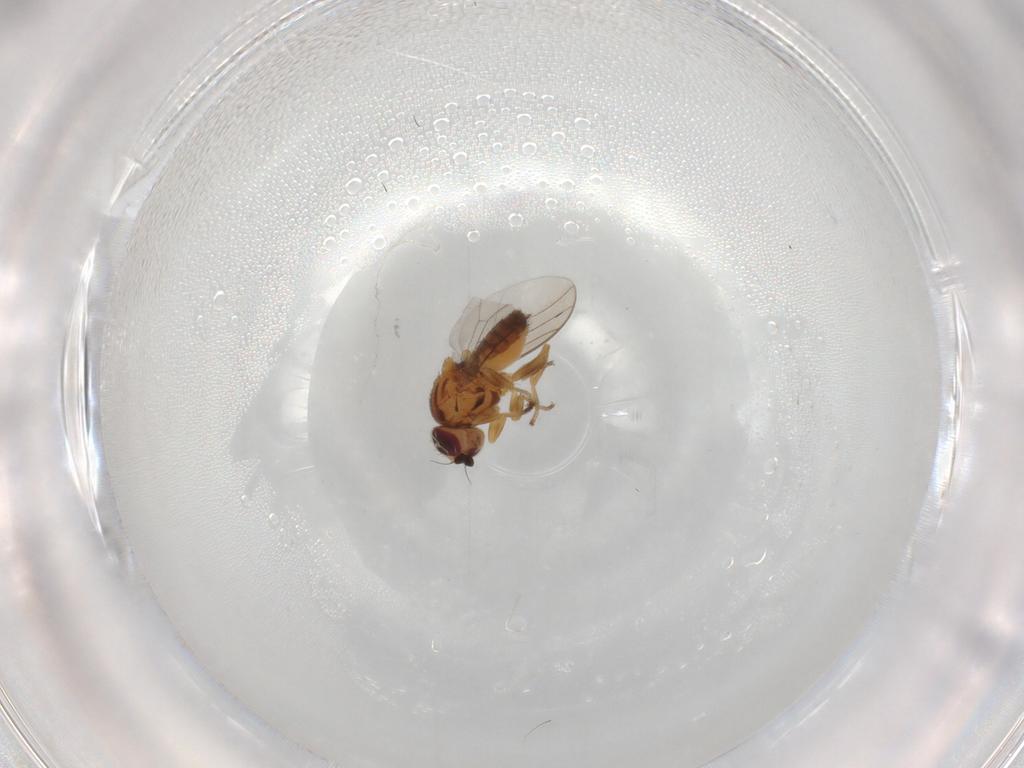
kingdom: Animalia
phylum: Arthropoda
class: Insecta
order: Diptera
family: Chloropidae
